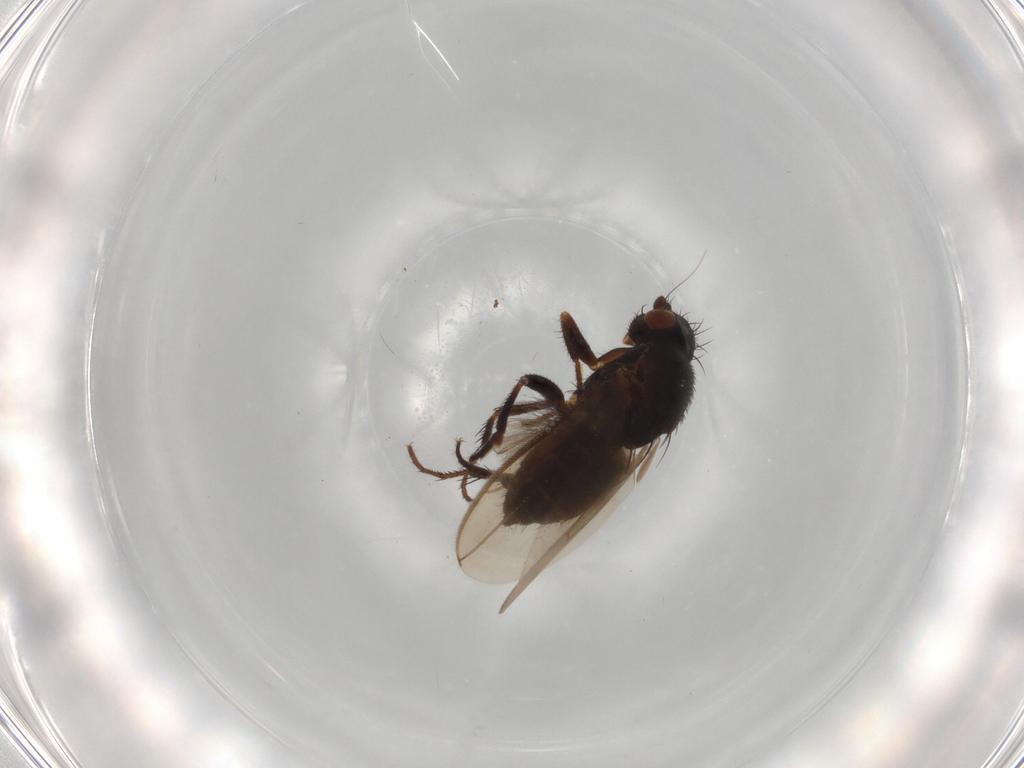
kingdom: Animalia
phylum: Arthropoda
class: Insecta
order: Diptera
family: Sphaeroceridae
